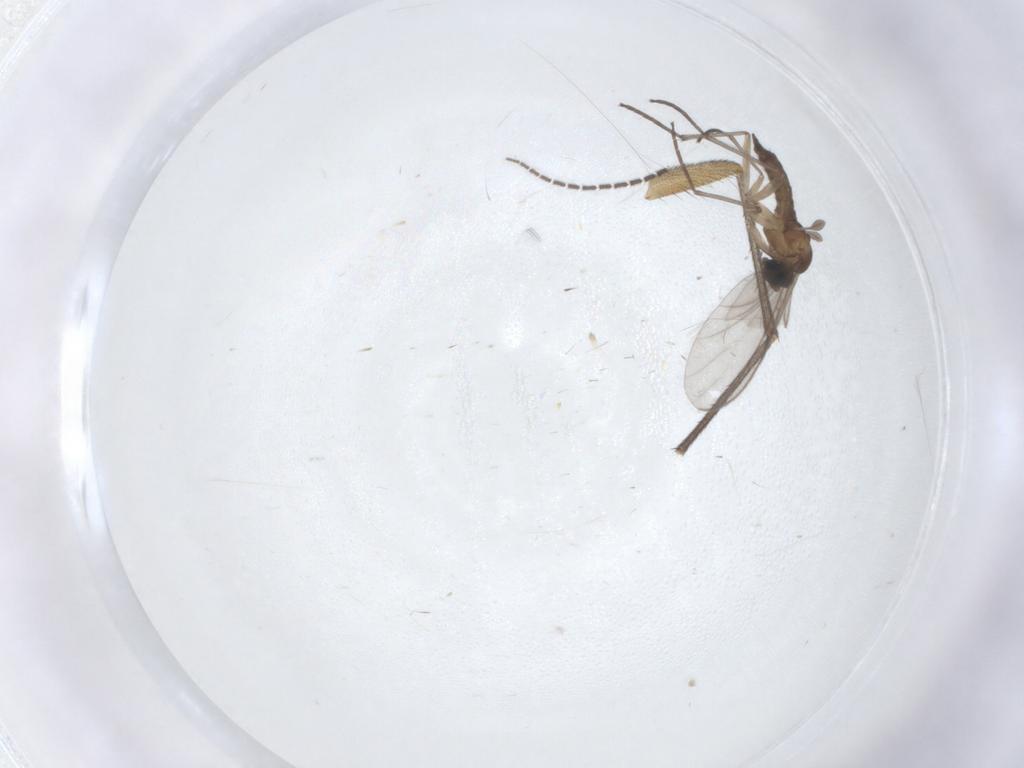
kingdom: Animalia
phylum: Arthropoda
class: Insecta
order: Diptera
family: Sciaridae
